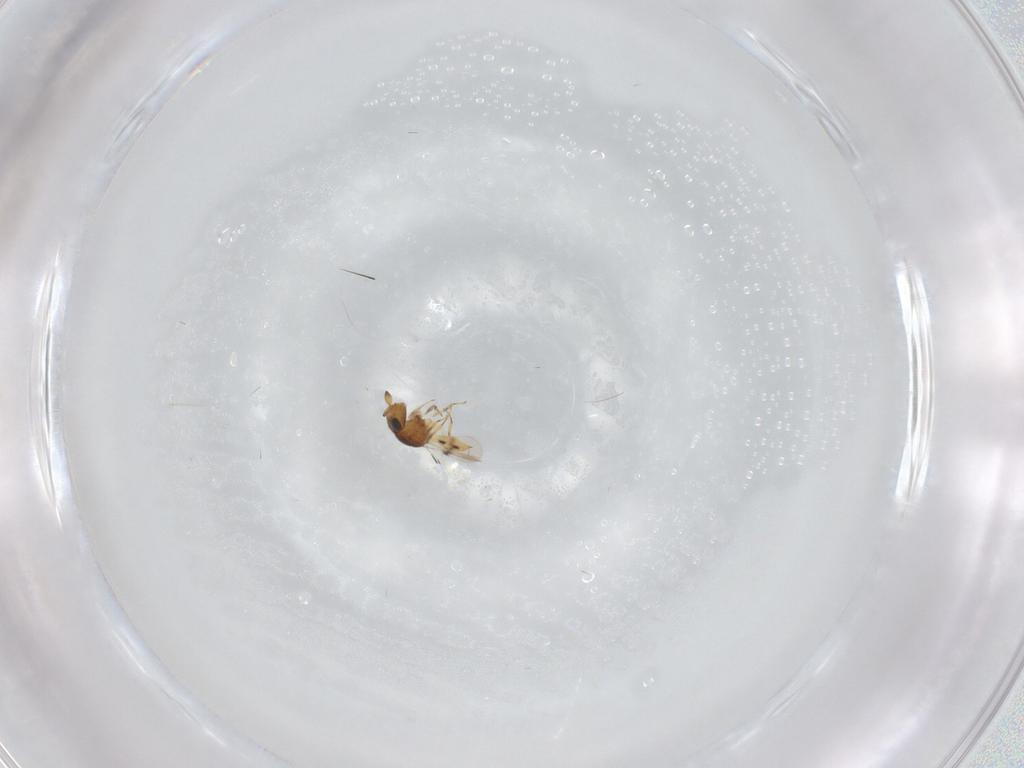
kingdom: Animalia
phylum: Arthropoda
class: Insecta
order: Hymenoptera
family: Scelionidae
